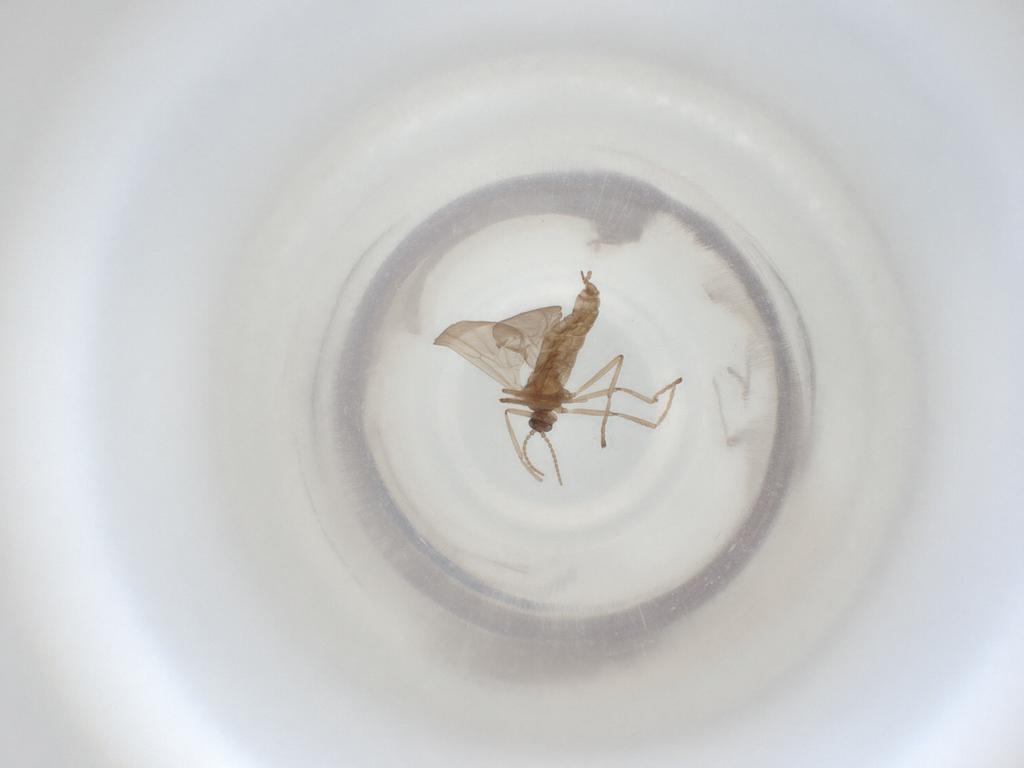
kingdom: Animalia
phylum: Arthropoda
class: Insecta
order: Diptera
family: Cecidomyiidae
